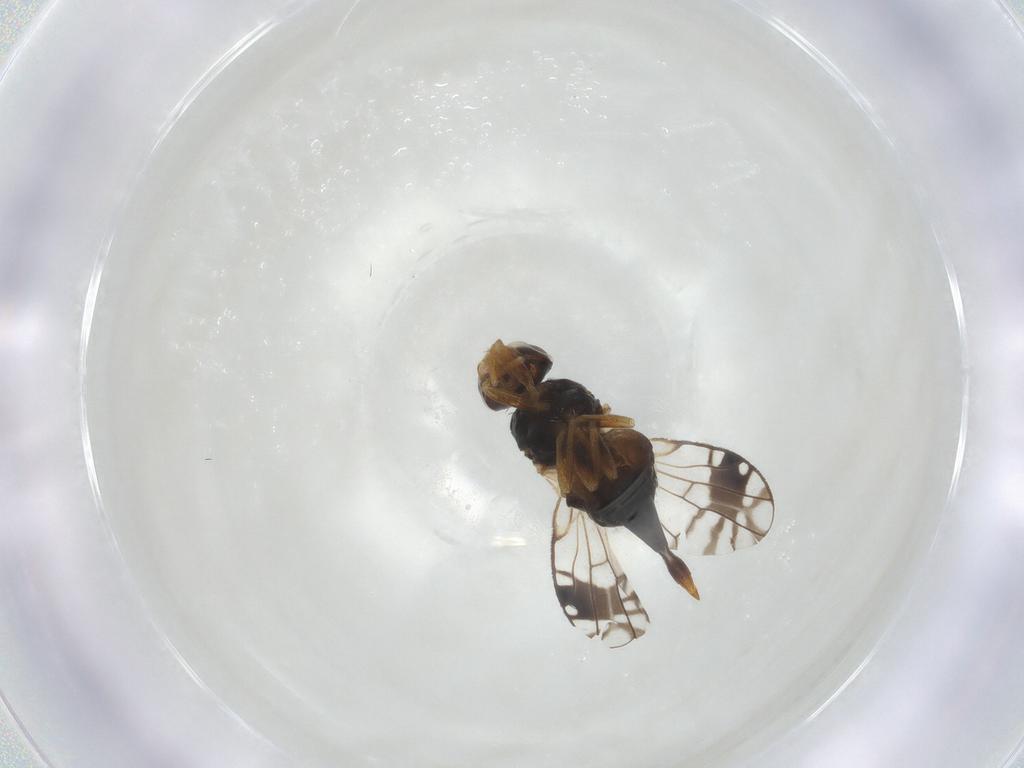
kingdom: Animalia
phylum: Arthropoda
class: Insecta
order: Diptera
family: Tephritidae
